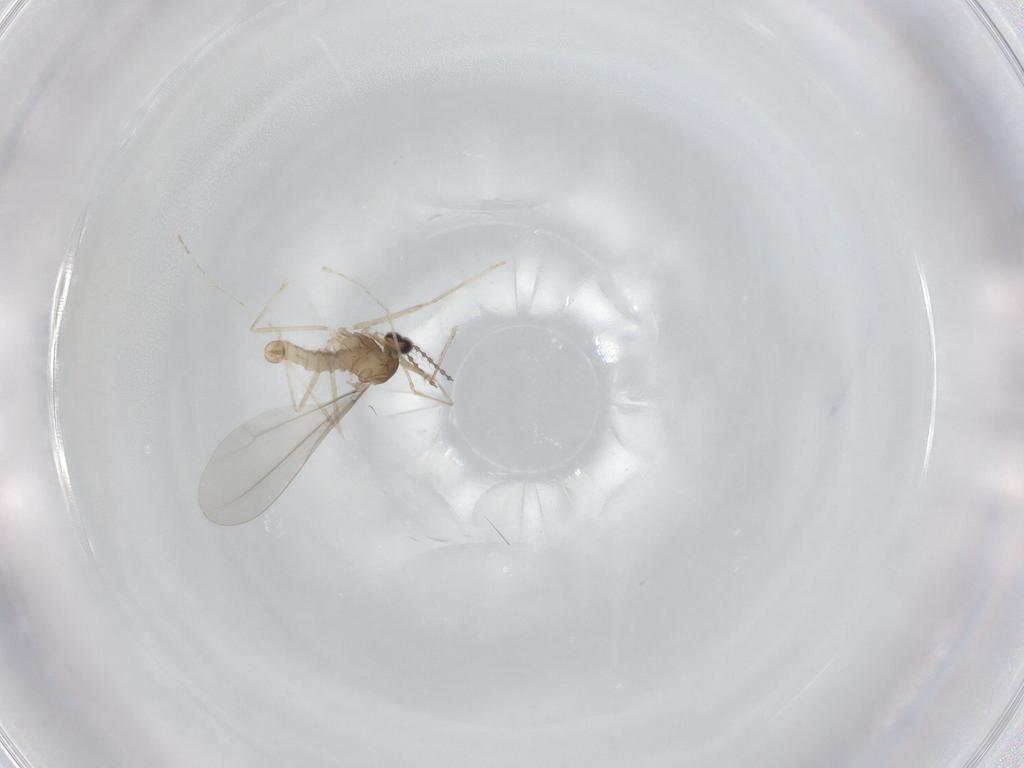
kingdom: Animalia
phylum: Arthropoda
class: Insecta
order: Diptera
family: Cecidomyiidae
